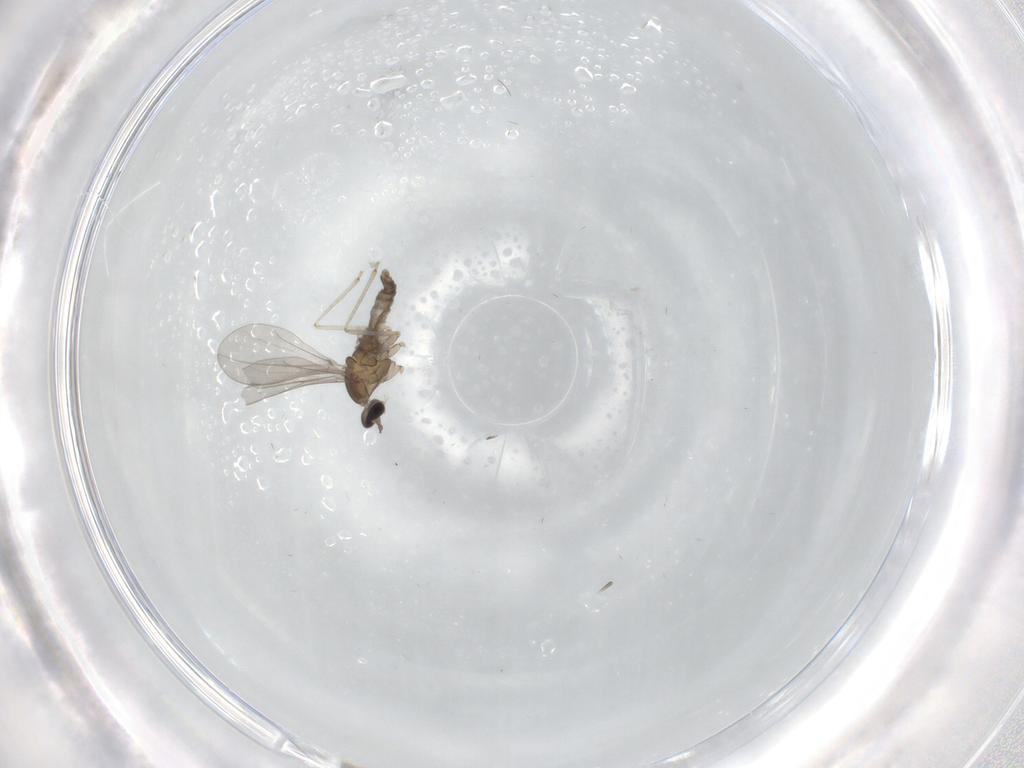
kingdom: Animalia
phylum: Arthropoda
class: Insecta
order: Diptera
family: Cecidomyiidae
